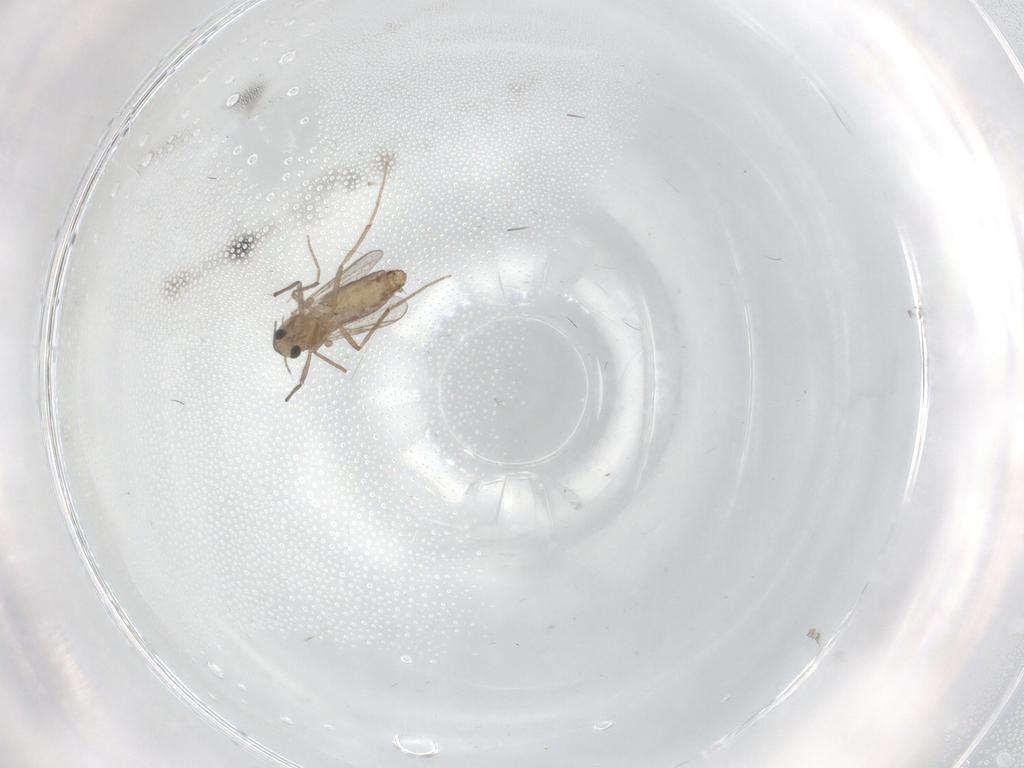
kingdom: Animalia
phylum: Arthropoda
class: Insecta
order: Diptera
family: Chironomidae
